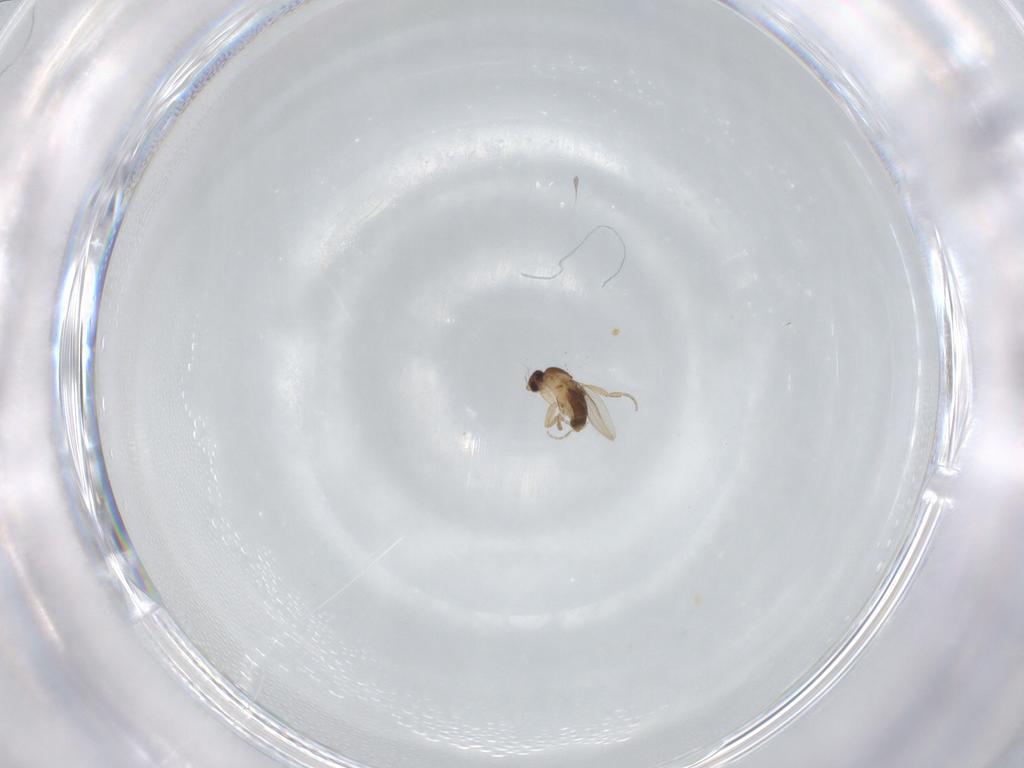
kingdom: Animalia
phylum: Arthropoda
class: Insecta
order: Diptera
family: Phoridae
